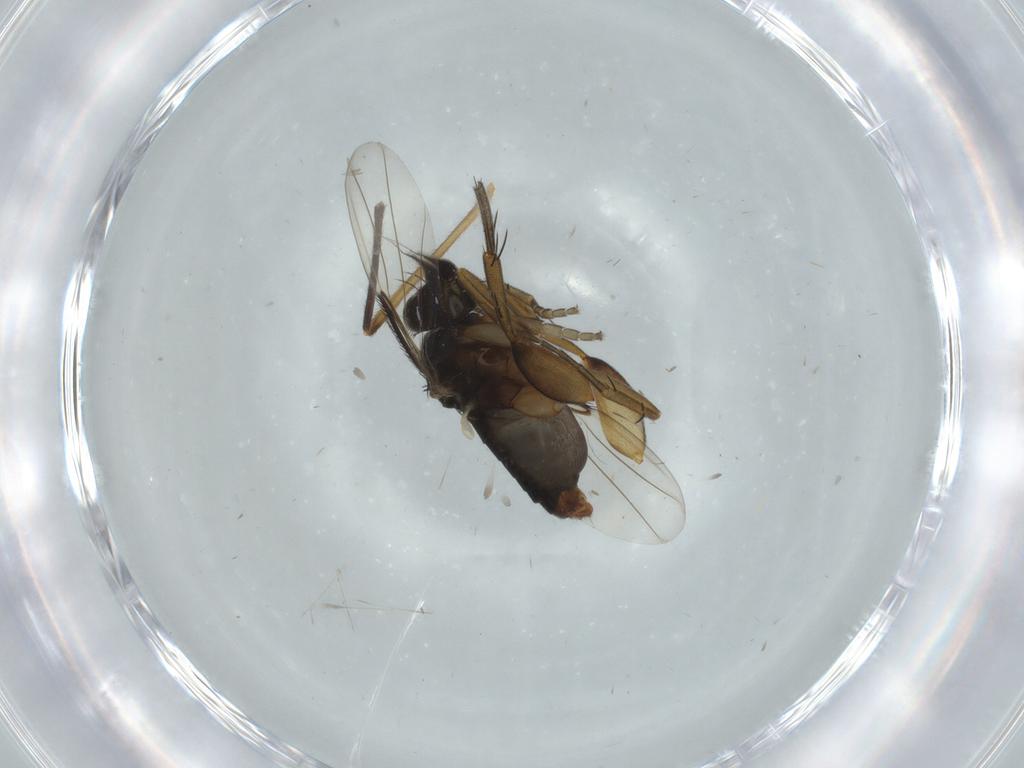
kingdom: Animalia
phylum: Arthropoda
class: Insecta
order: Diptera
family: Phoridae
